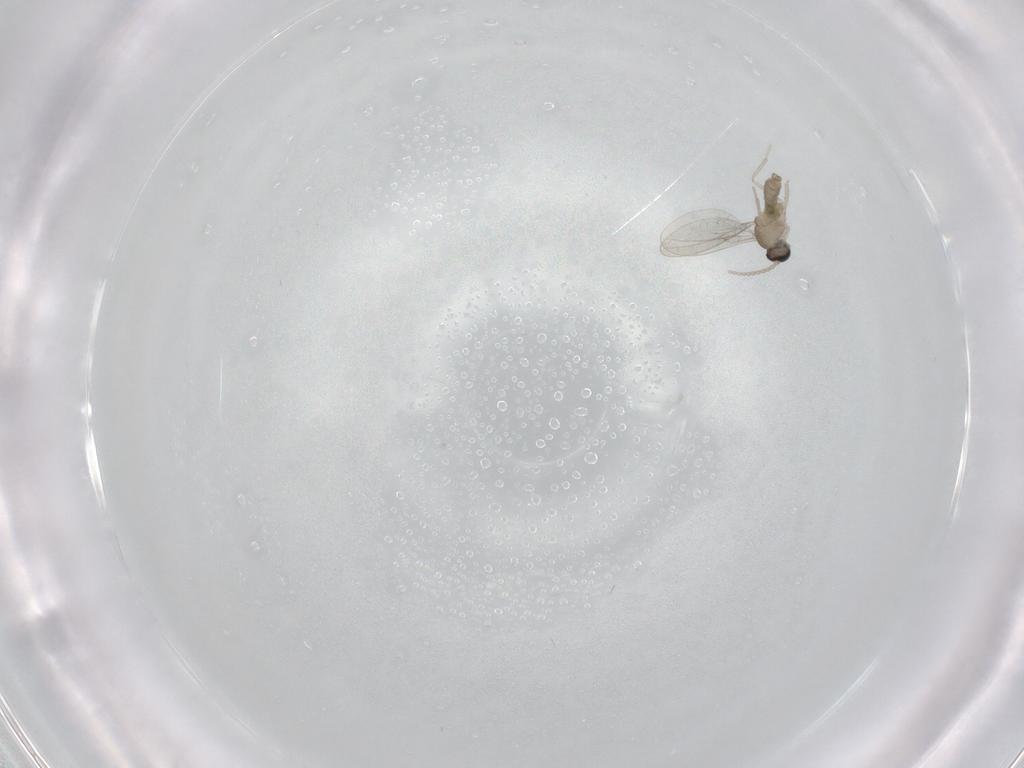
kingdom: Animalia
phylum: Arthropoda
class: Insecta
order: Diptera
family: Cecidomyiidae
